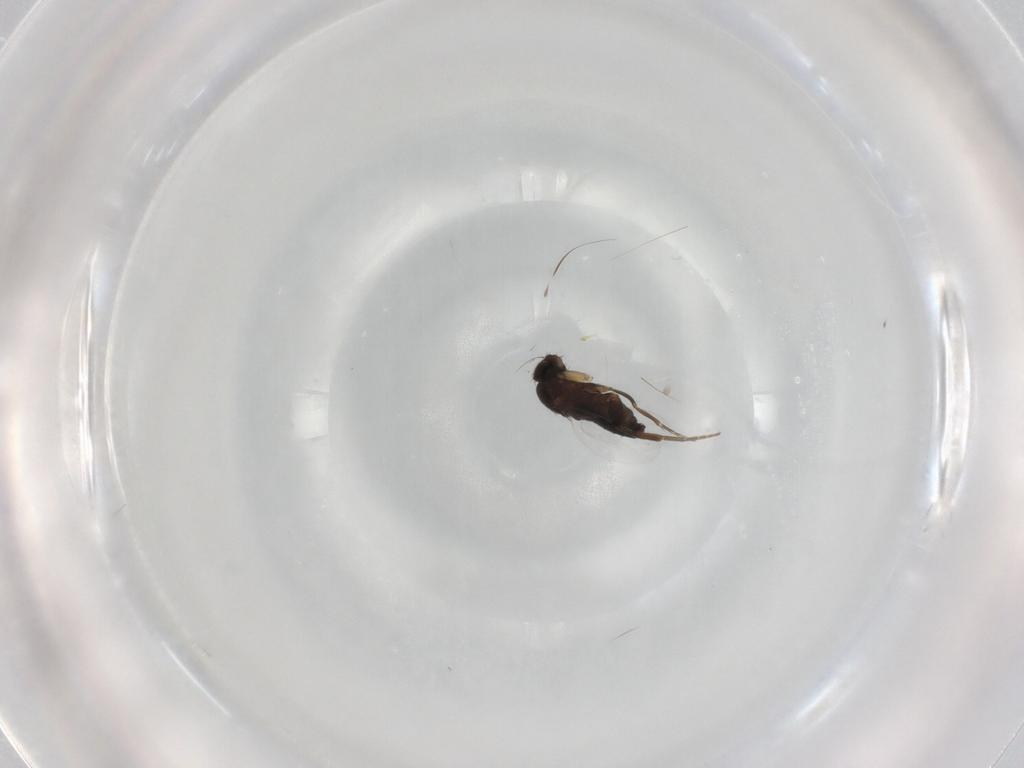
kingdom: Animalia
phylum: Arthropoda
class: Insecta
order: Diptera
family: Phoridae
